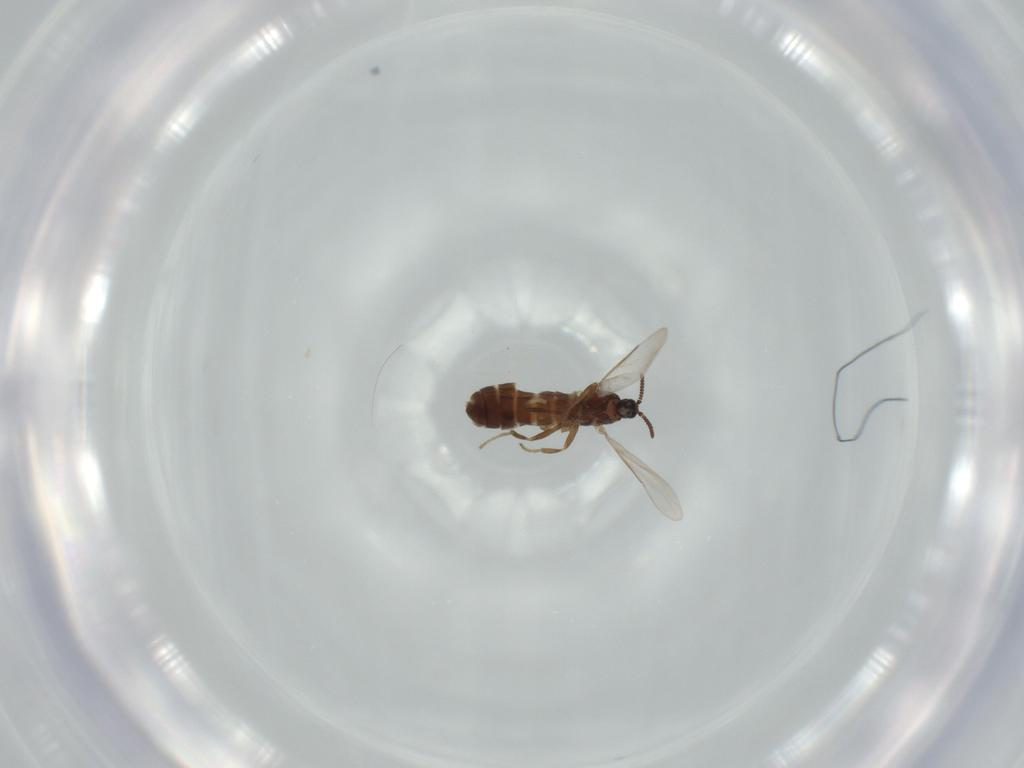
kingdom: Animalia
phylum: Arthropoda
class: Insecta
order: Diptera
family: Scatopsidae
